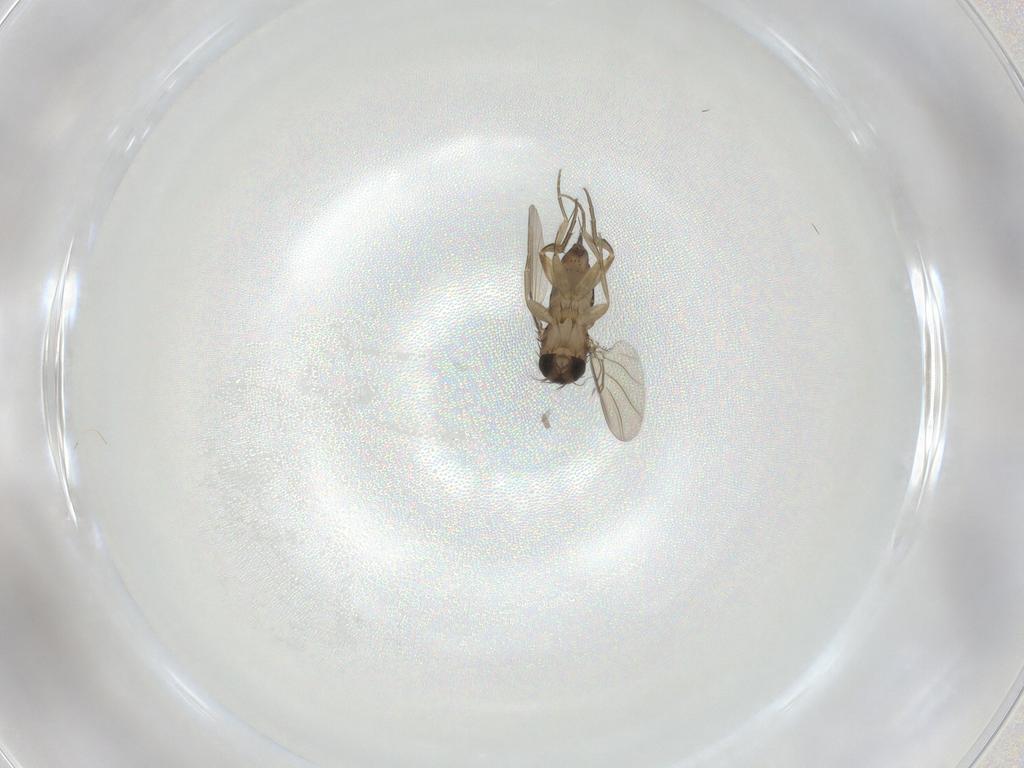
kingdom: Animalia
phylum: Arthropoda
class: Insecta
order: Diptera
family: Phoridae
